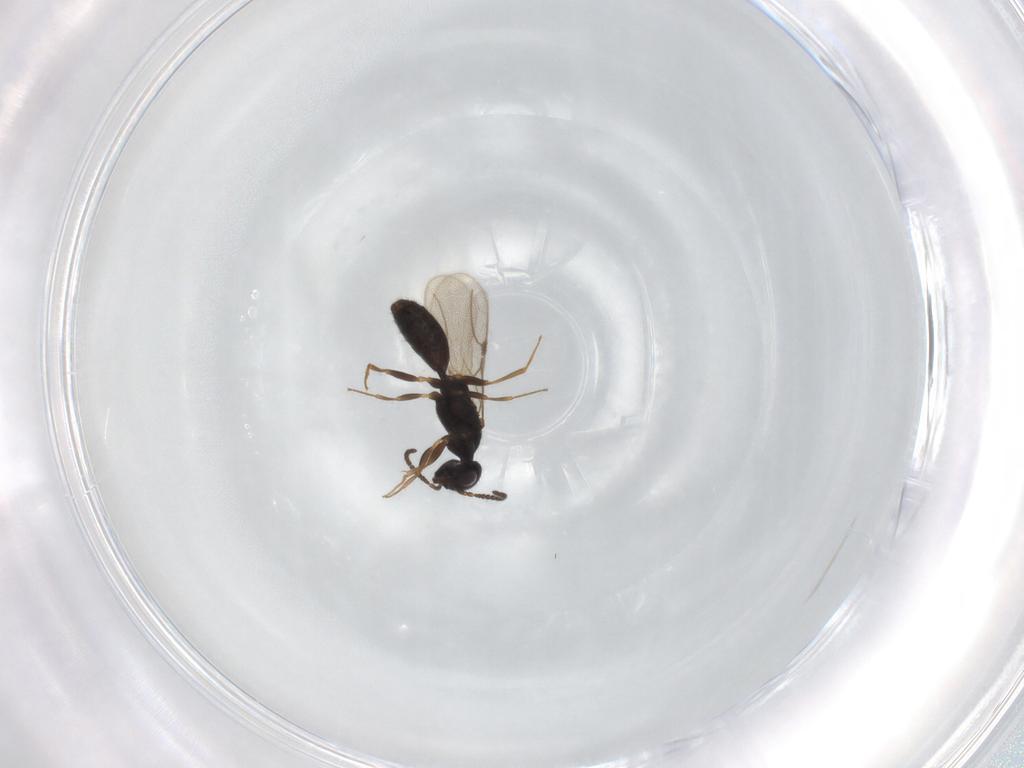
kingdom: Animalia
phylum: Arthropoda
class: Insecta
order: Hymenoptera
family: Bethylidae
